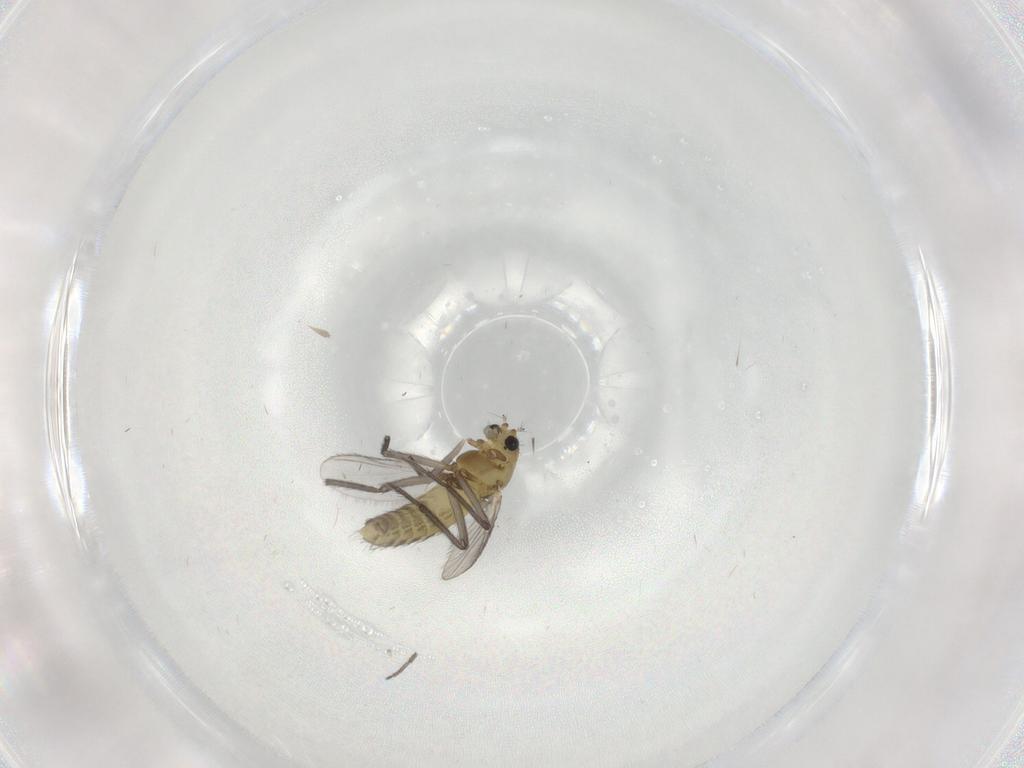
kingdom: Animalia
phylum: Arthropoda
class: Insecta
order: Diptera
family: Chironomidae
